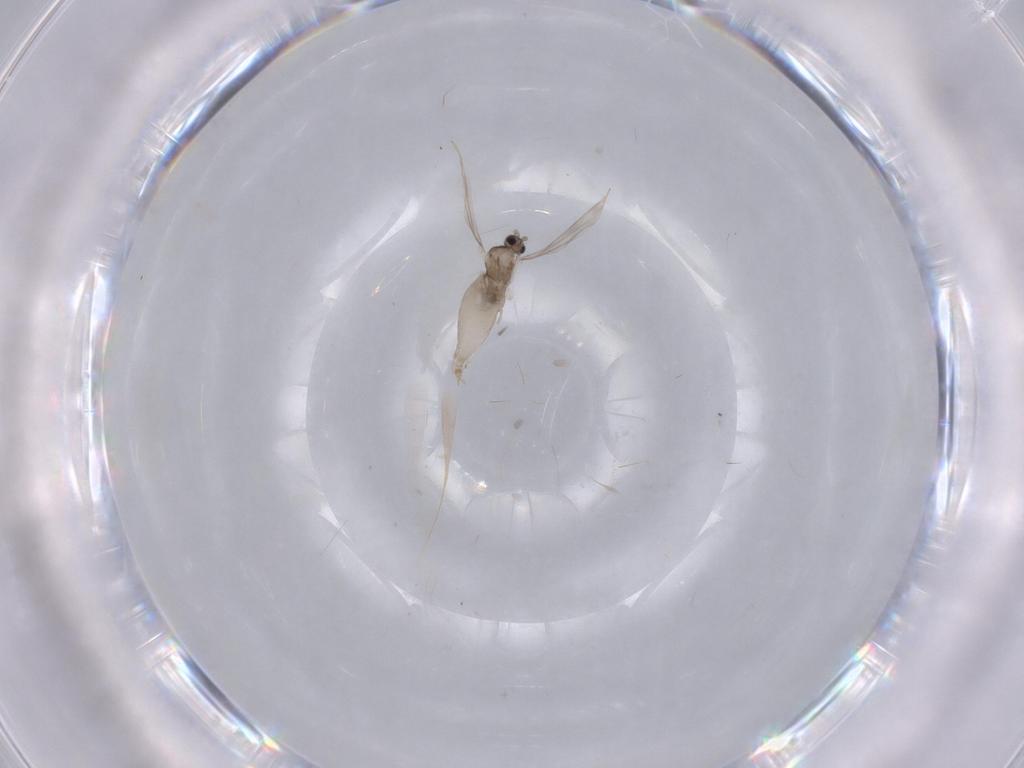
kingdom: Animalia
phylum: Arthropoda
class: Insecta
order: Diptera
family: Cecidomyiidae
